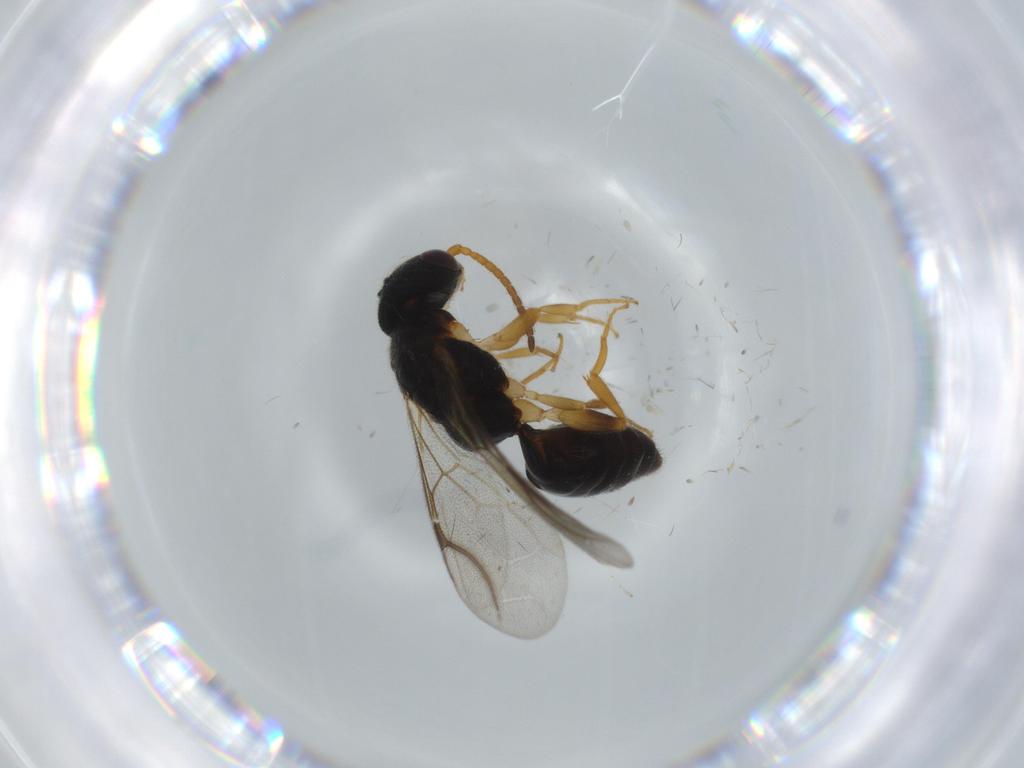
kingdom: Animalia
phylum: Arthropoda
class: Insecta
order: Hymenoptera
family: Bethylidae
